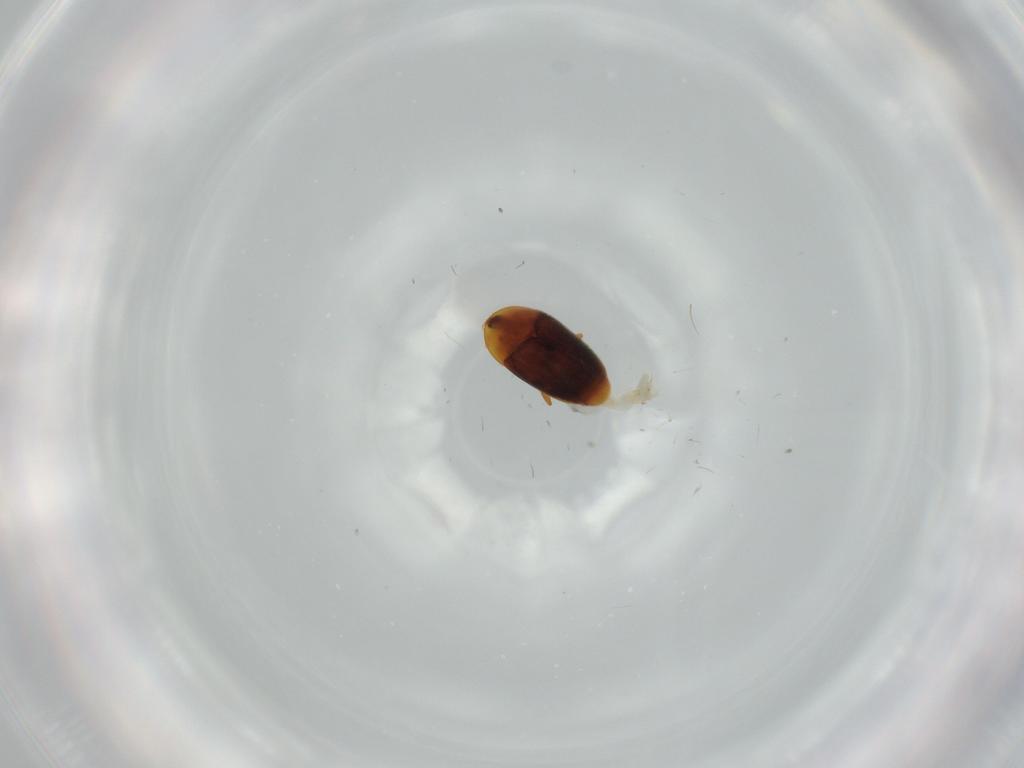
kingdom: Animalia
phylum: Arthropoda
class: Insecta
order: Coleoptera
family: Corylophidae
